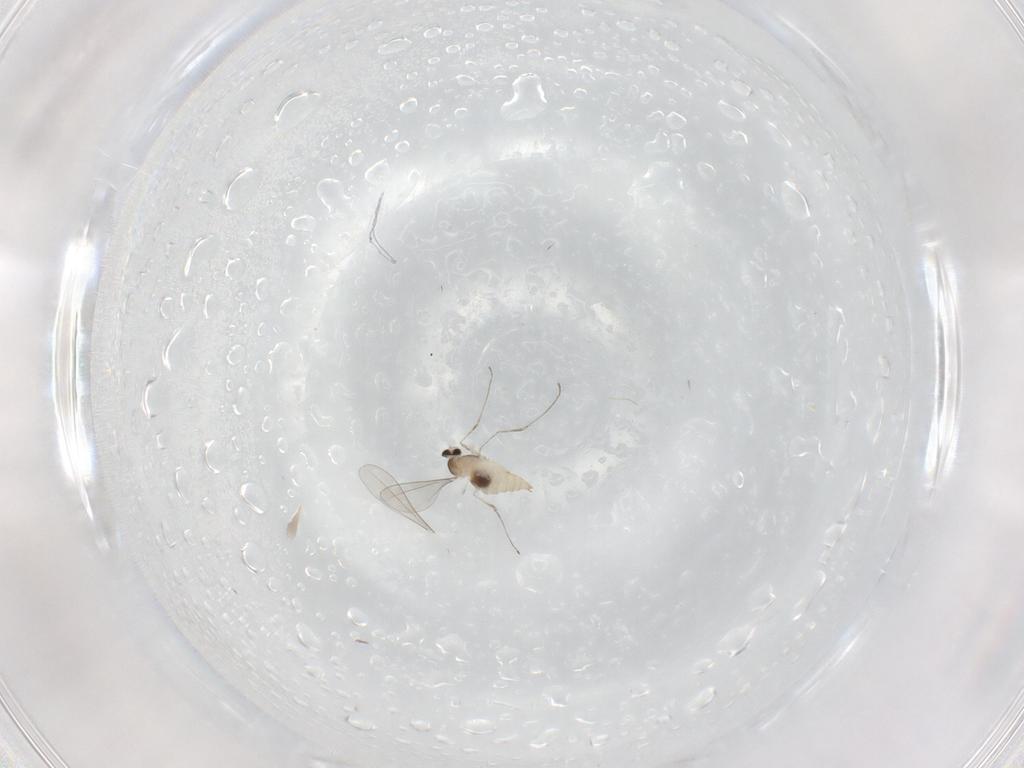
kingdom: Animalia
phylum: Arthropoda
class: Insecta
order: Diptera
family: Cecidomyiidae
